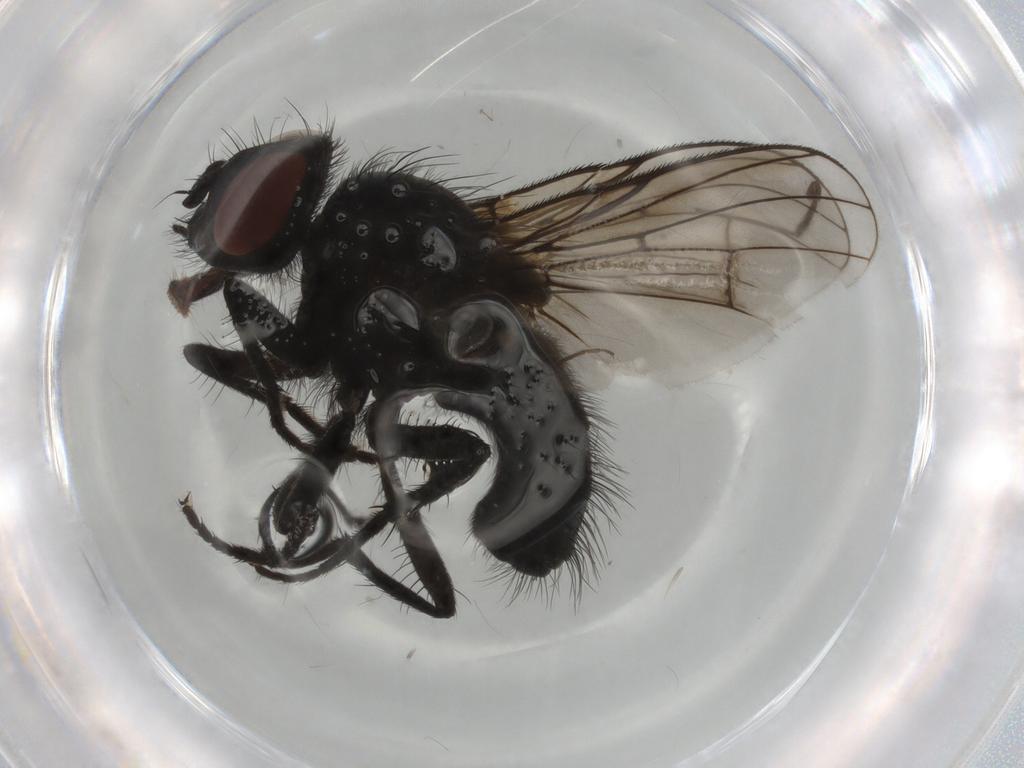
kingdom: Animalia
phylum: Arthropoda
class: Insecta
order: Diptera
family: Muscidae
